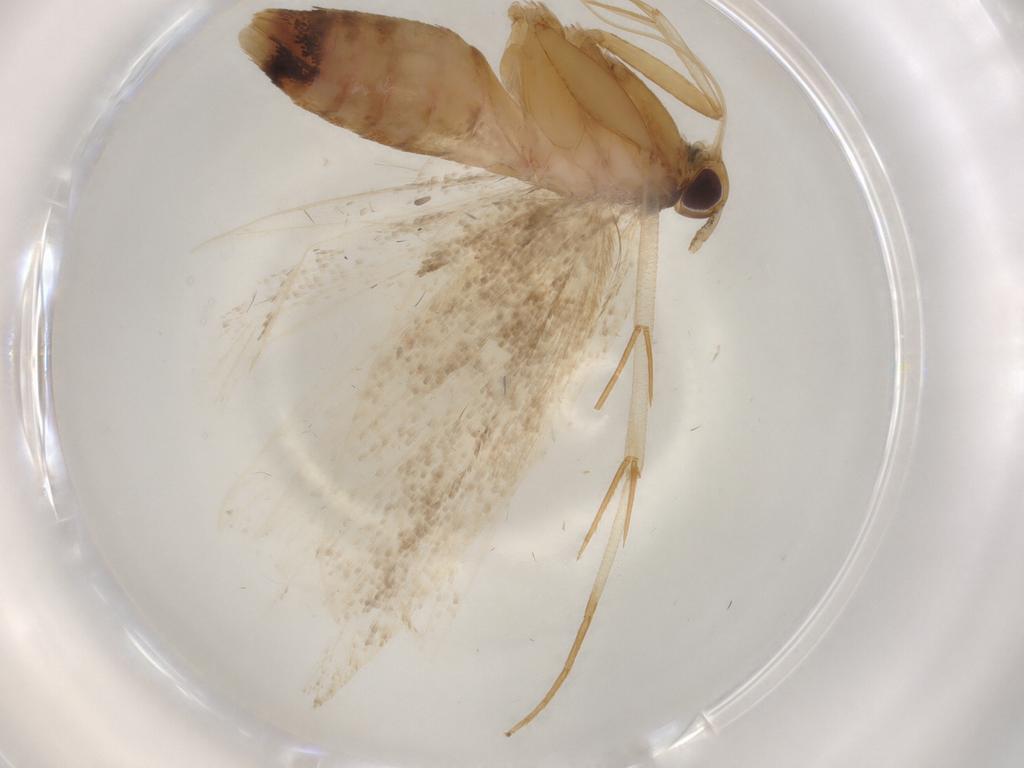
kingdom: Animalia
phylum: Arthropoda
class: Insecta
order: Lepidoptera
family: Lecithoceridae
